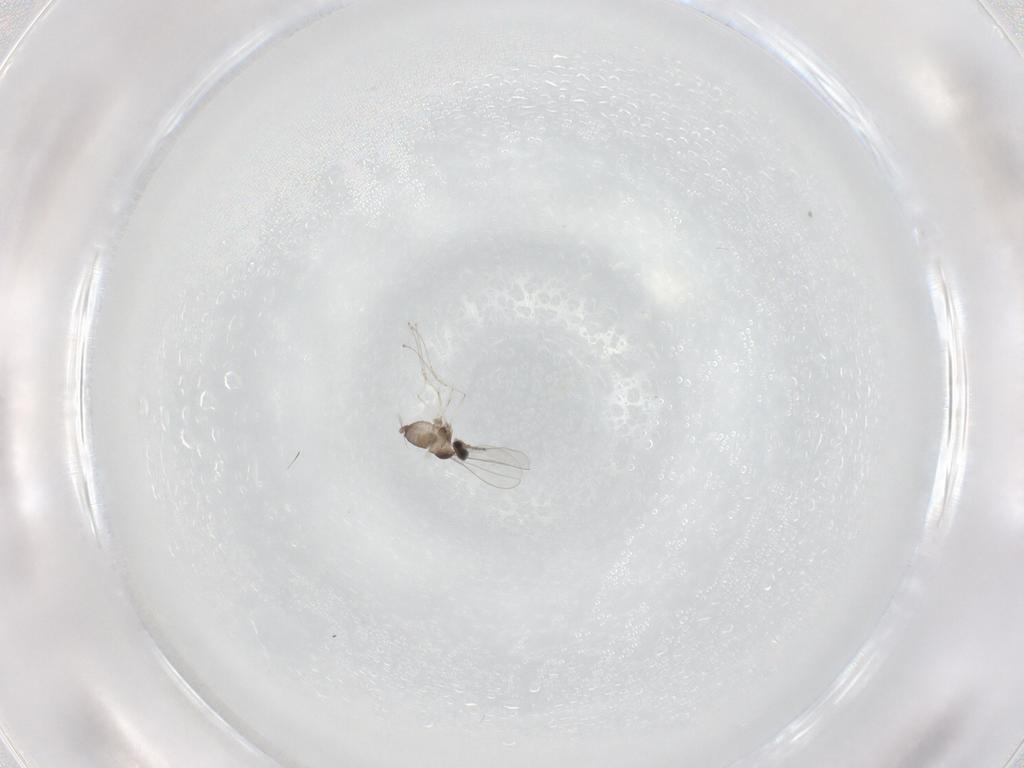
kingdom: Animalia
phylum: Arthropoda
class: Insecta
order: Diptera
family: Cecidomyiidae
